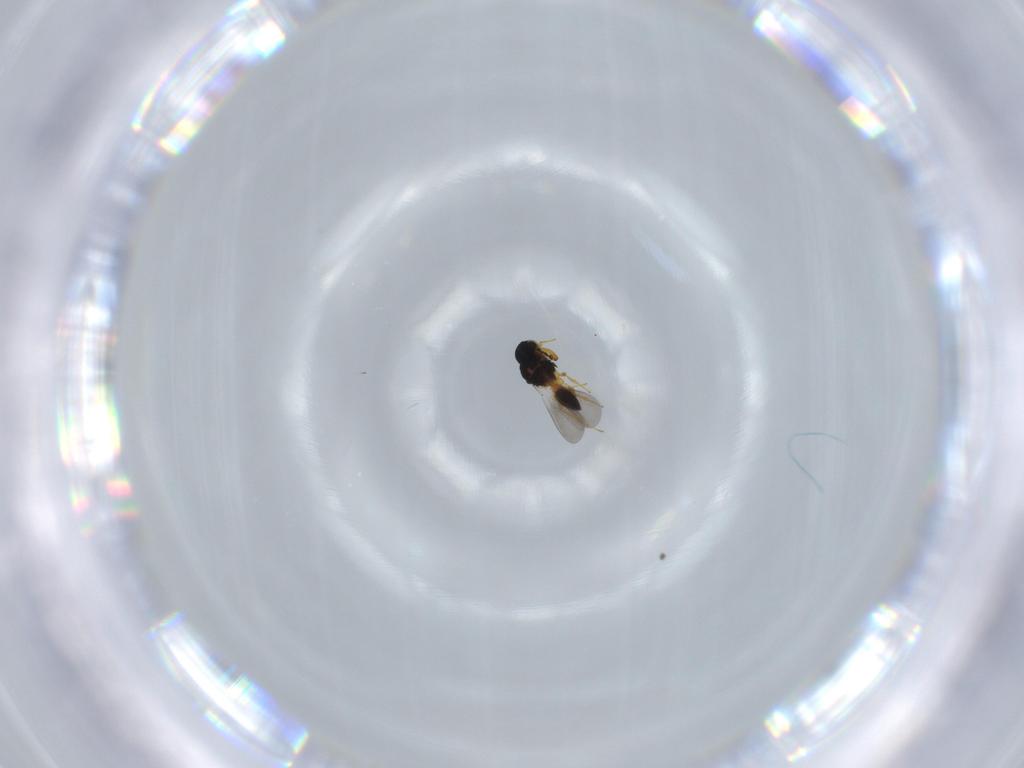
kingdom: Animalia
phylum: Arthropoda
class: Insecta
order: Hymenoptera
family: Platygastridae
